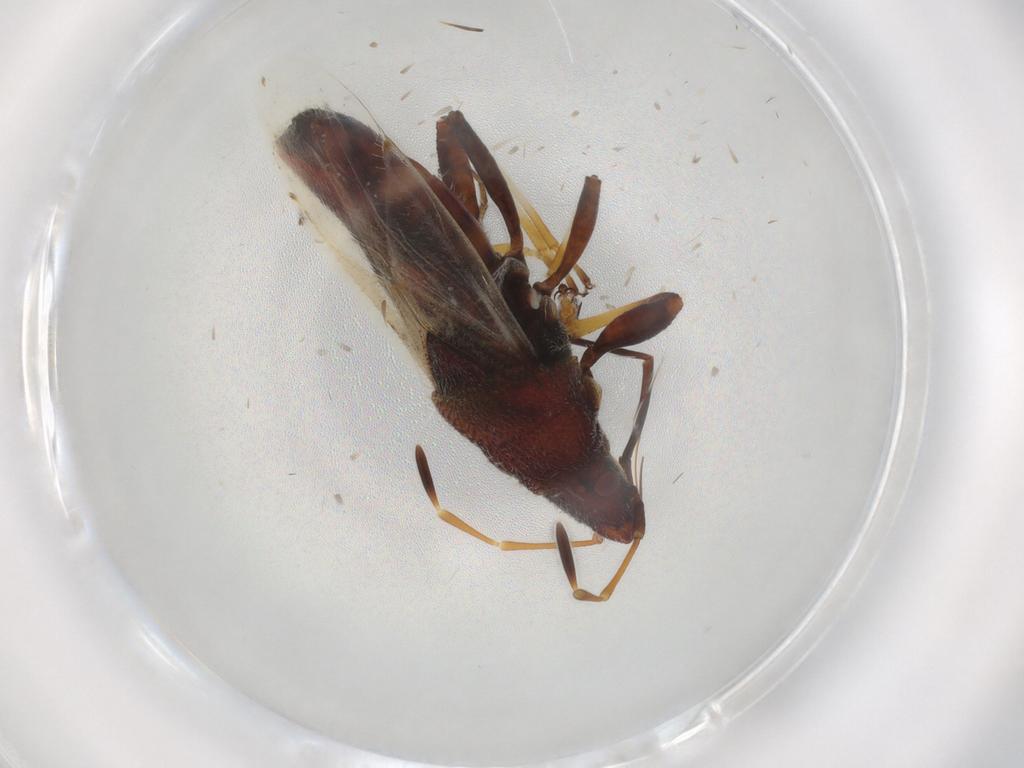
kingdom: Animalia
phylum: Arthropoda
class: Insecta
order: Hemiptera
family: Oxycarenidae
